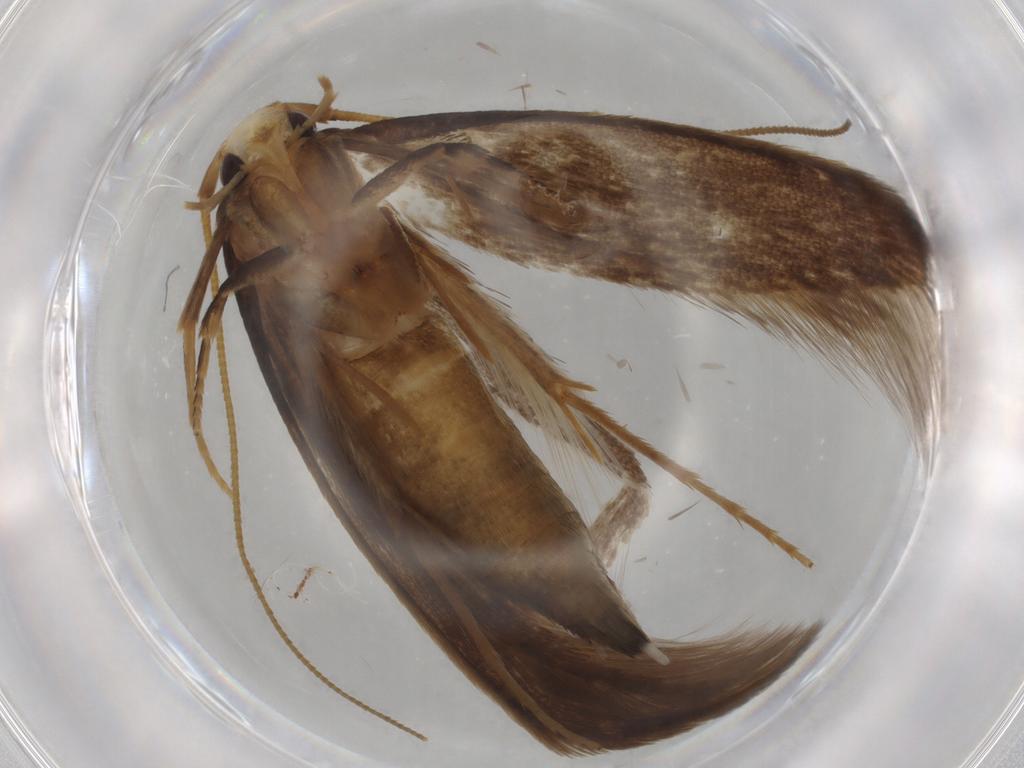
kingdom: Animalia
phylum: Arthropoda
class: Insecta
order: Lepidoptera
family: Tineidae
